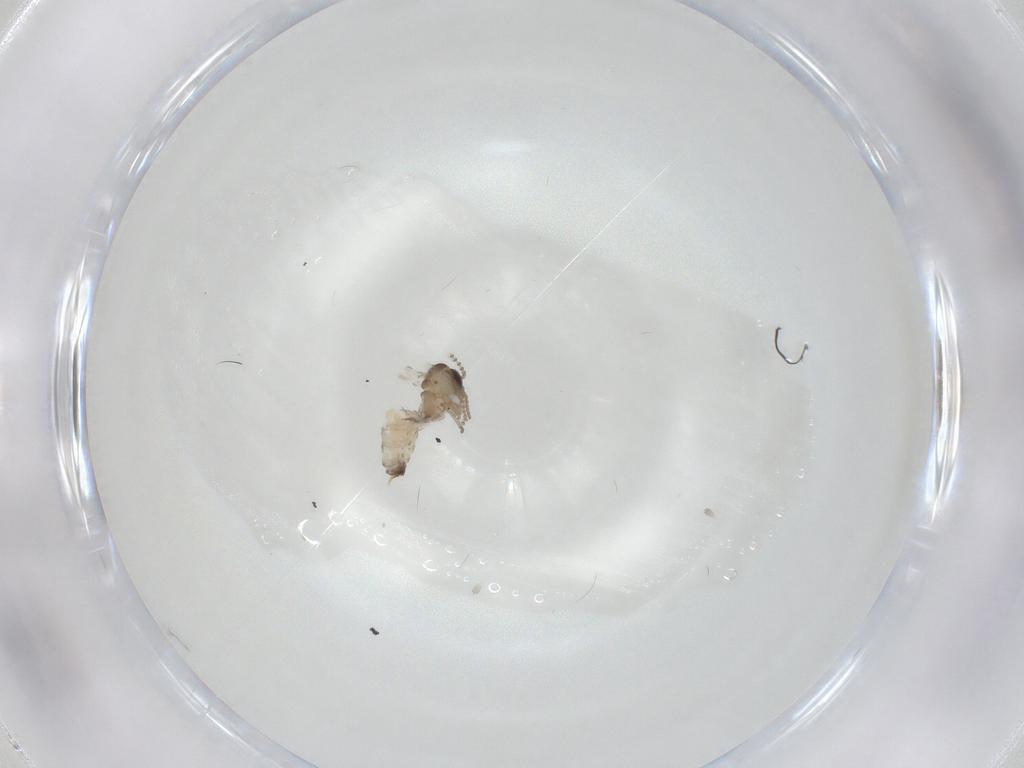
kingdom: Animalia
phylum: Arthropoda
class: Insecta
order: Diptera
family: Psychodidae
